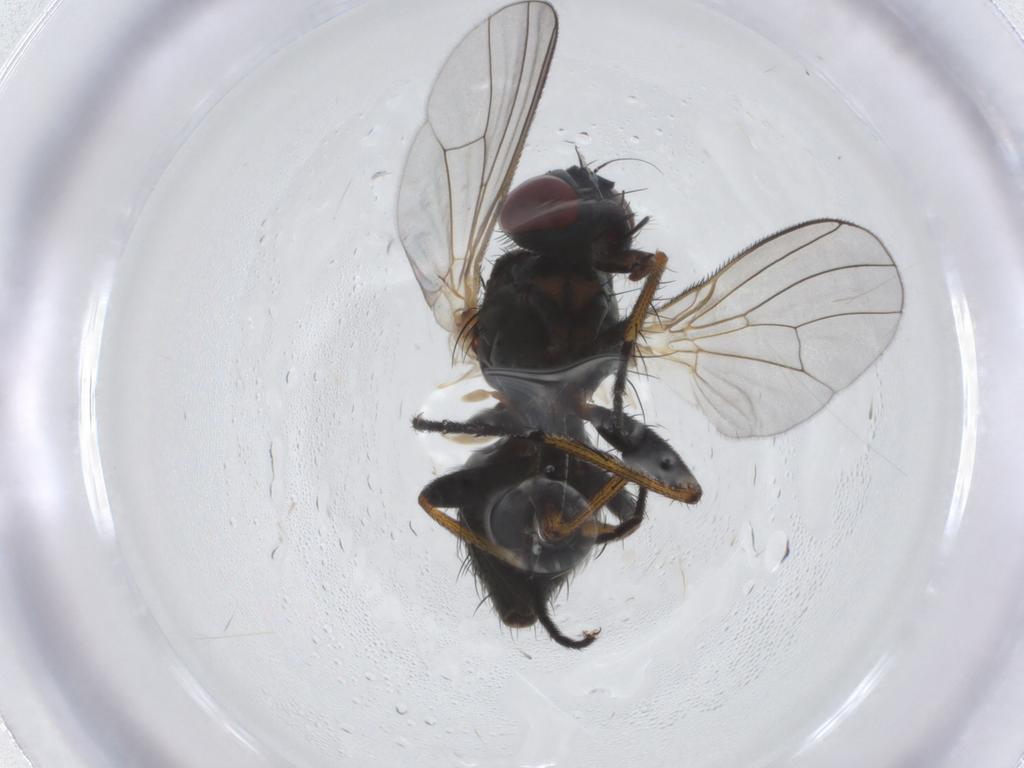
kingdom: Animalia
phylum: Arthropoda
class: Insecta
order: Diptera
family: Muscidae
